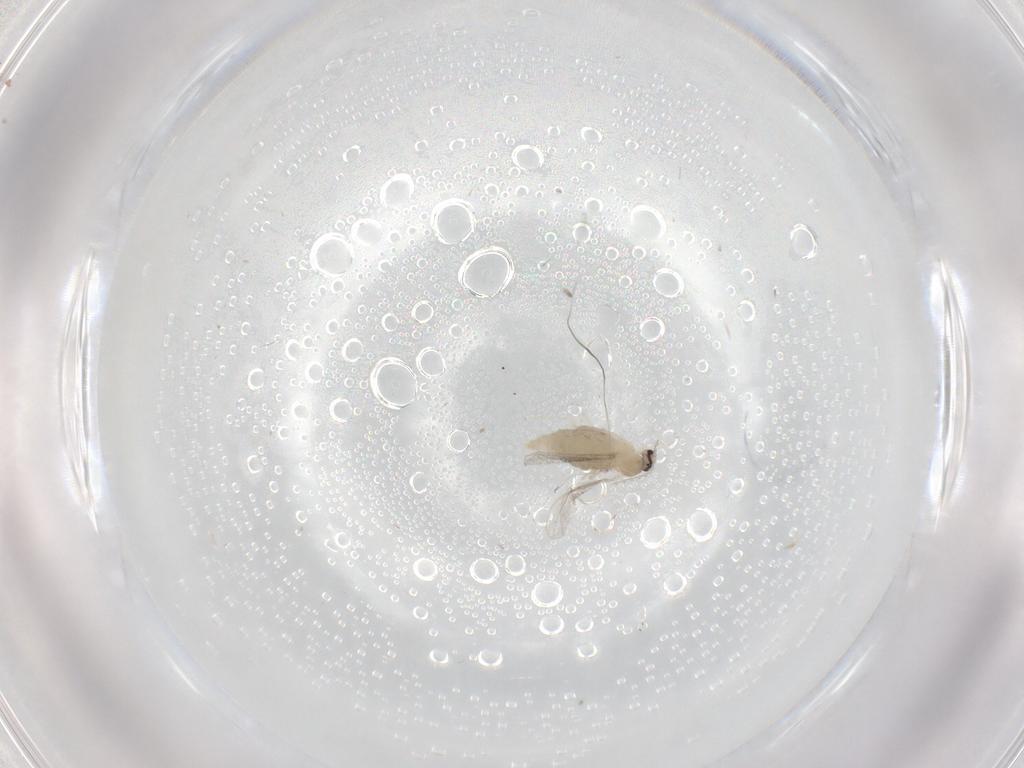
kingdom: Animalia
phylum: Arthropoda
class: Insecta
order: Diptera
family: Cecidomyiidae
